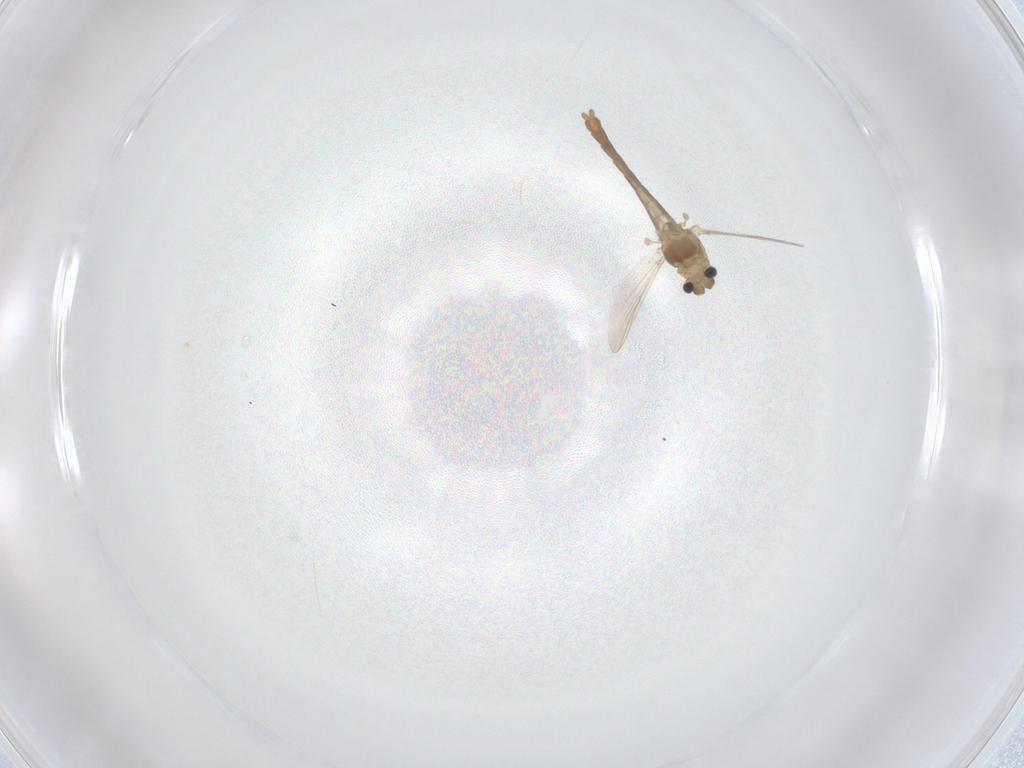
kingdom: Animalia
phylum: Arthropoda
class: Insecta
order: Diptera
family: Chironomidae
